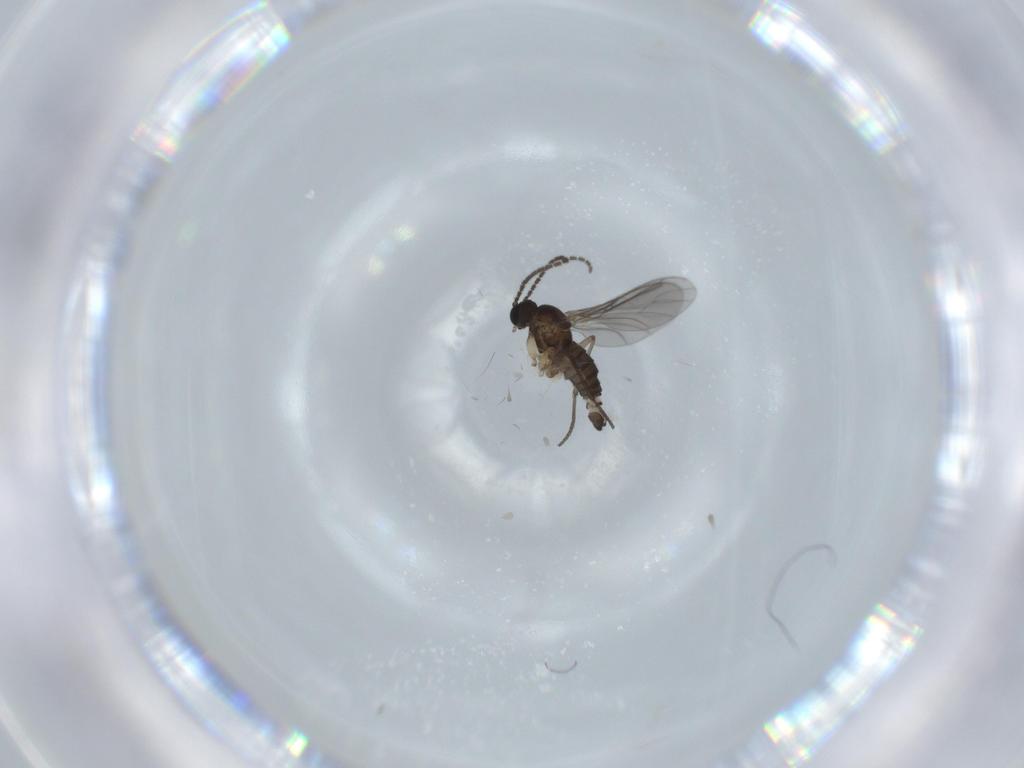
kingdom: Animalia
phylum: Arthropoda
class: Insecta
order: Diptera
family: Sciaridae
